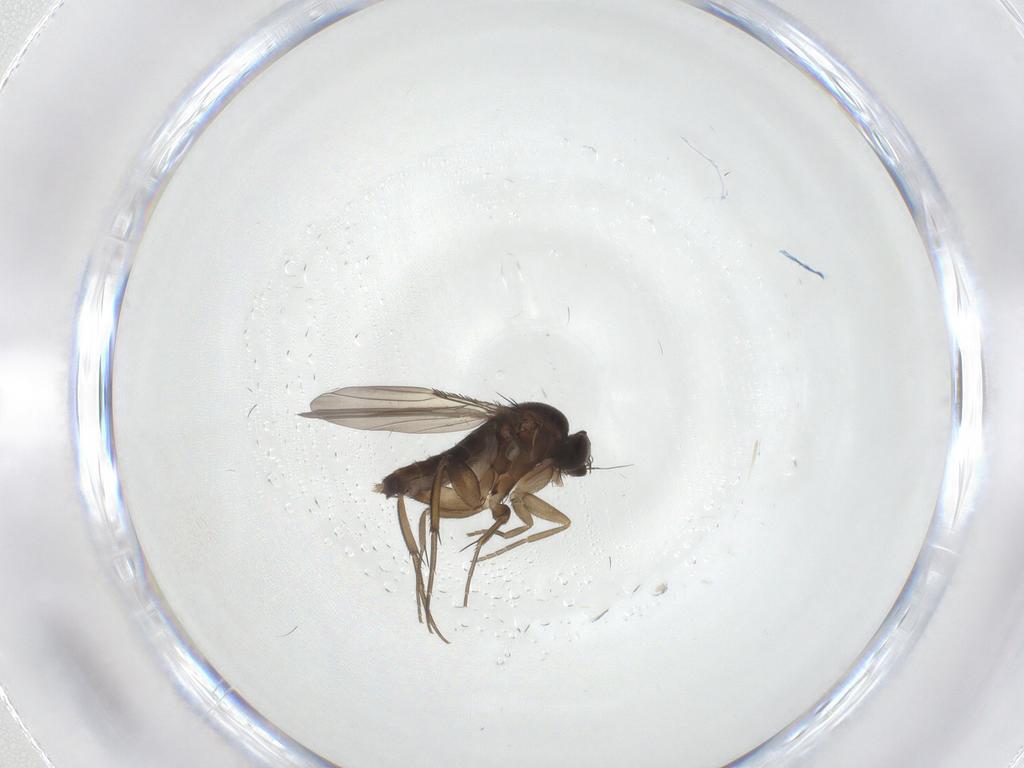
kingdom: Animalia
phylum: Arthropoda
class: Insecta
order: Diptera
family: Phoridae
